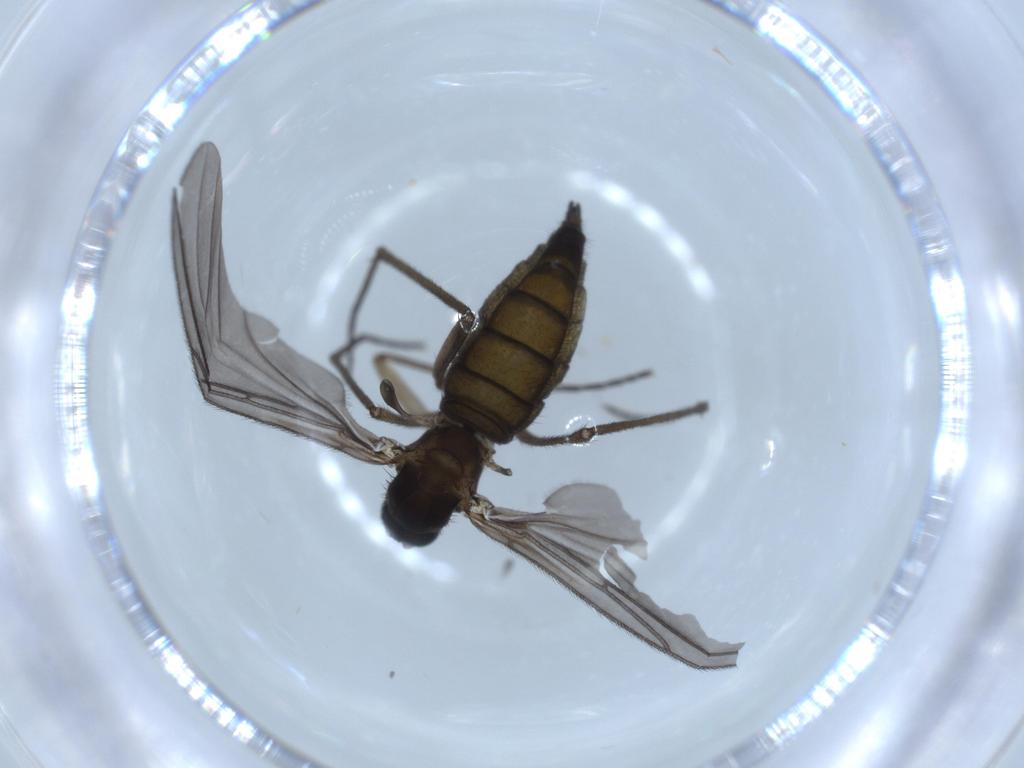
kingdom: Animalia
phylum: Arthropoda
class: Insecta
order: Diptera
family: Sciaridae
